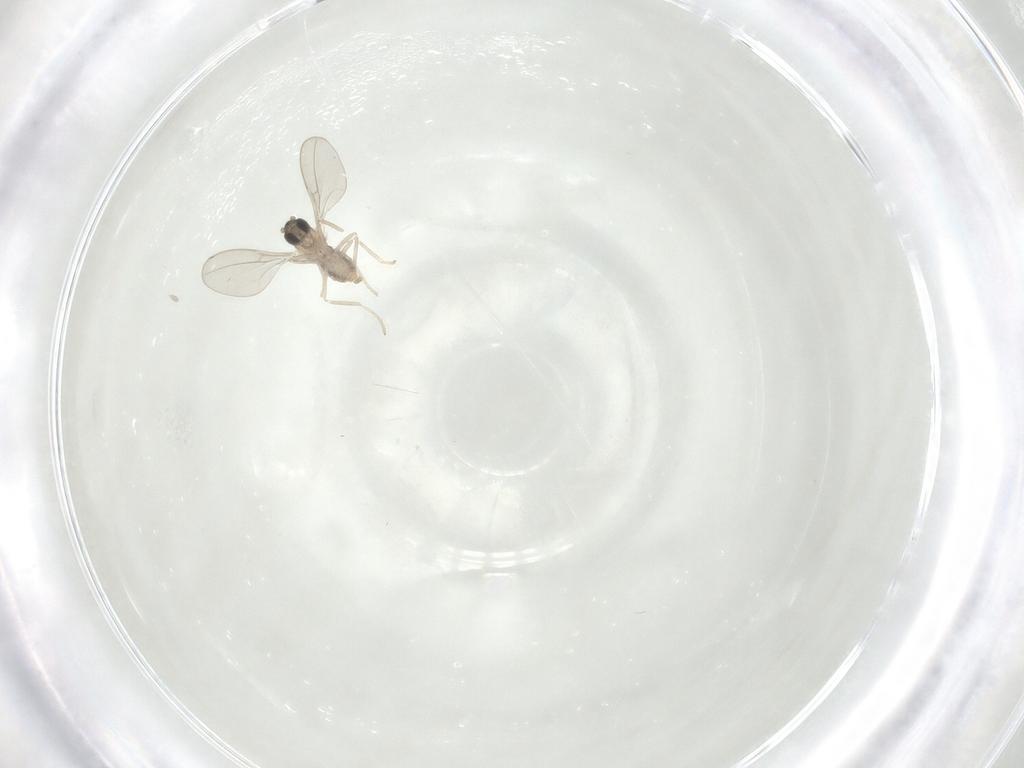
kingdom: Animalia
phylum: Arthropoda
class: Insecta
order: Diptera
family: Cecidomyiidae
